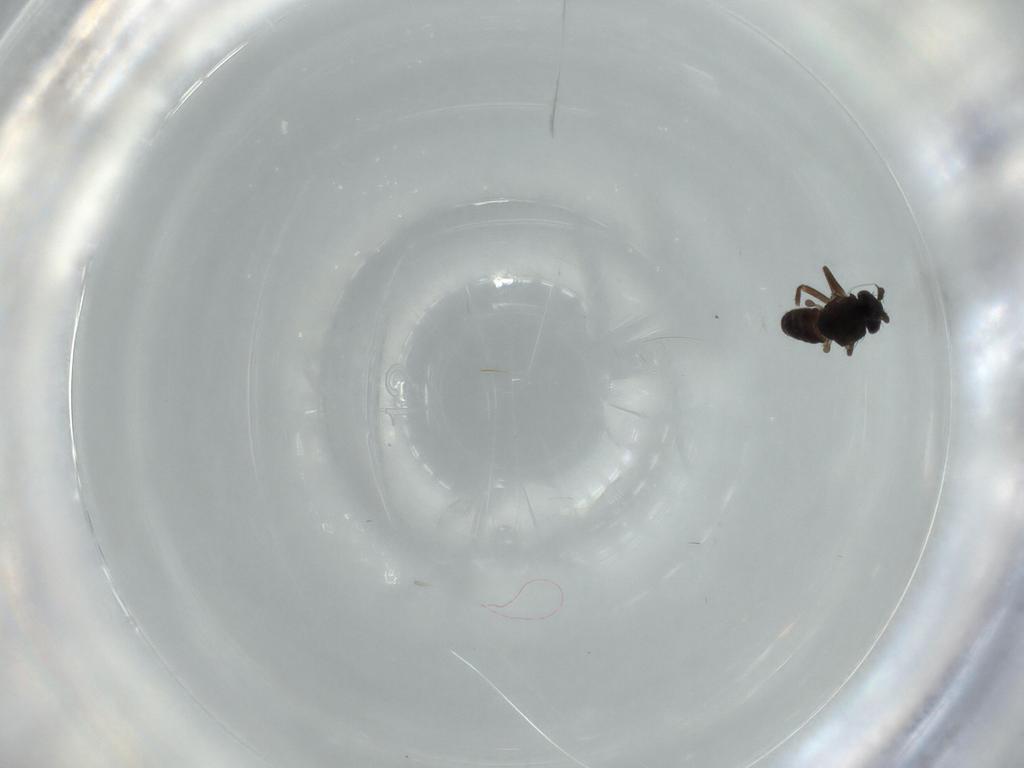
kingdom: Animalia
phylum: Arthropoda
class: Insecta
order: Diptera
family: Sphaeroceridae
